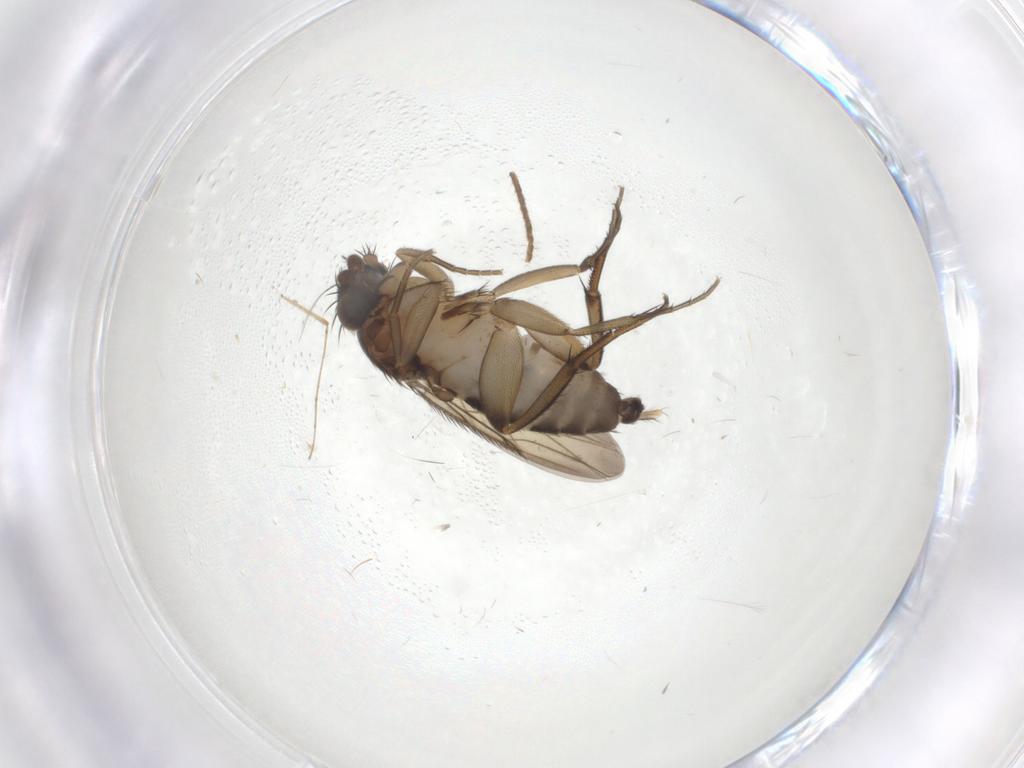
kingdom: Animalia
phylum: Arthropoda
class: Insecta
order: Diptera
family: Phoridae
